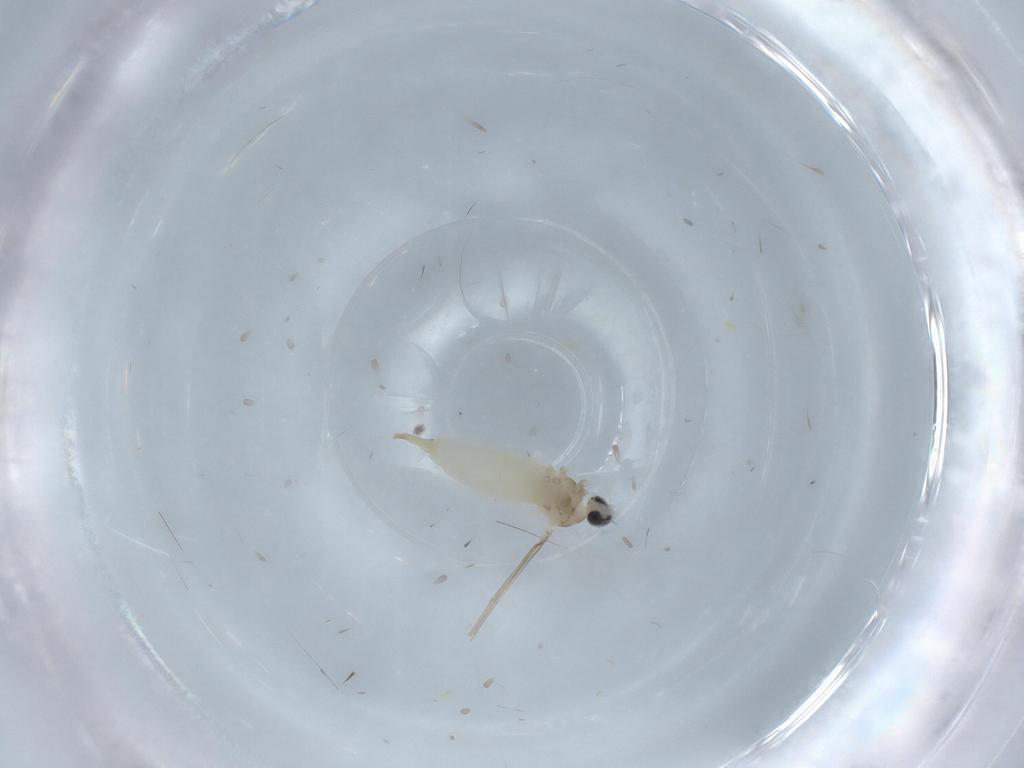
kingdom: Animalia
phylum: Arthropoda
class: Insecta
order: Diptera
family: Cecidomyiidae
